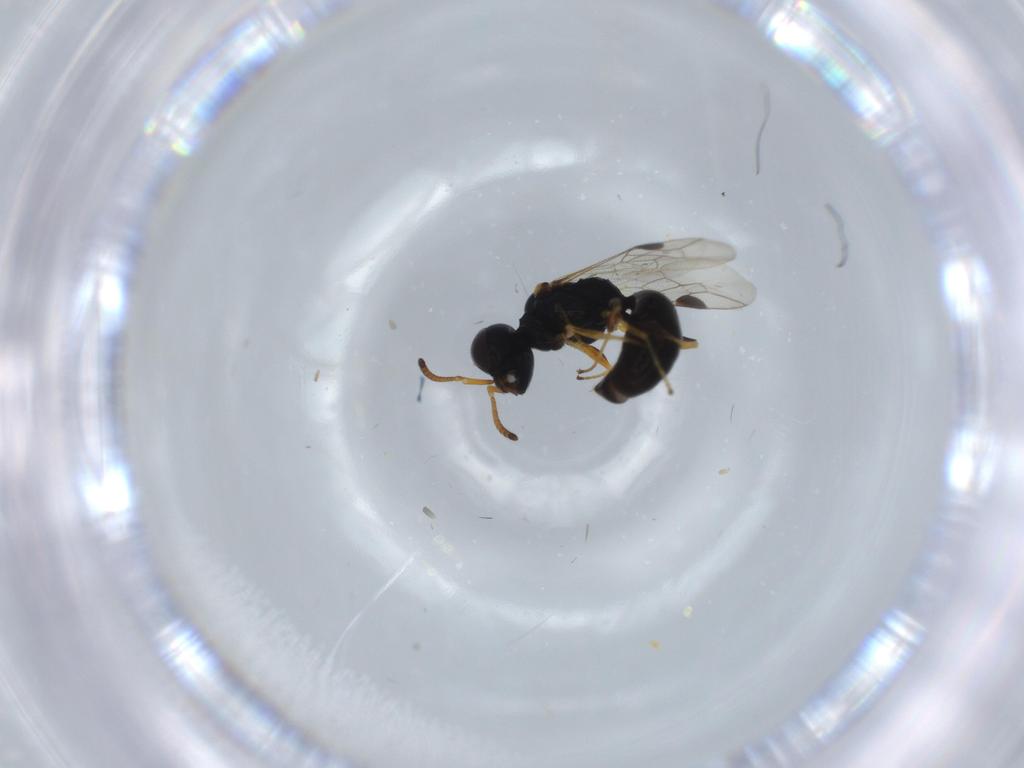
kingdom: Animalia
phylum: Arthropoda
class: Insecta
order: Hymenoptera
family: Pemphredonidae
